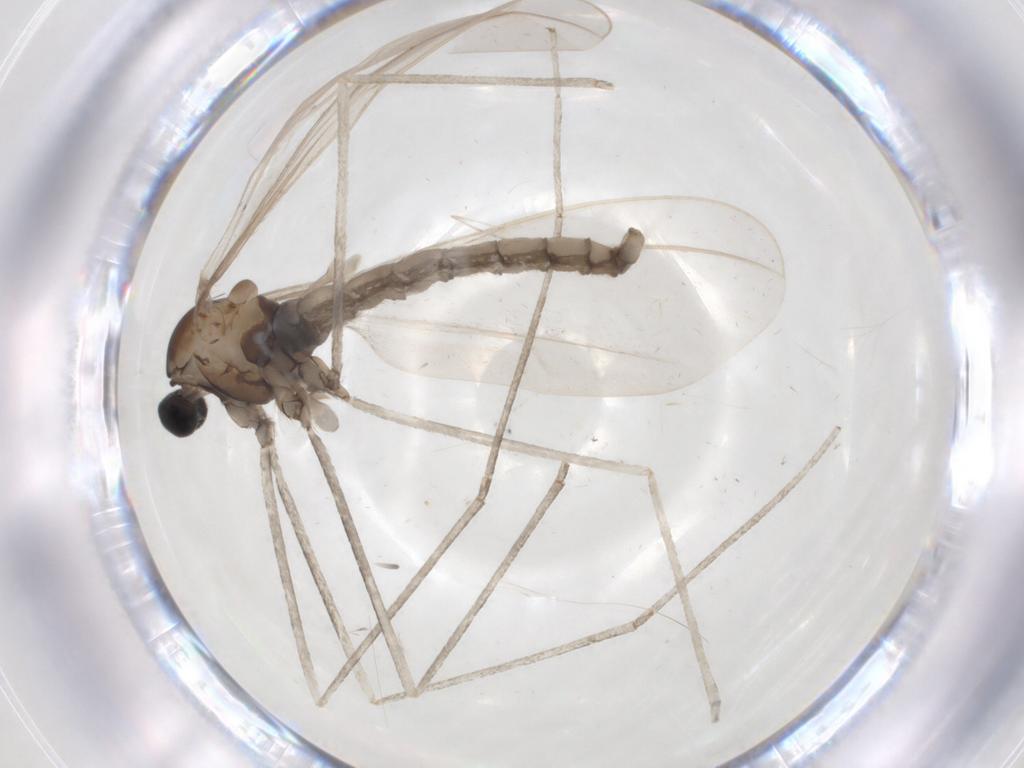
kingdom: Animalia
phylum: Arthropoda
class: Insecta
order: Diptera
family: Cecidomyiidae
